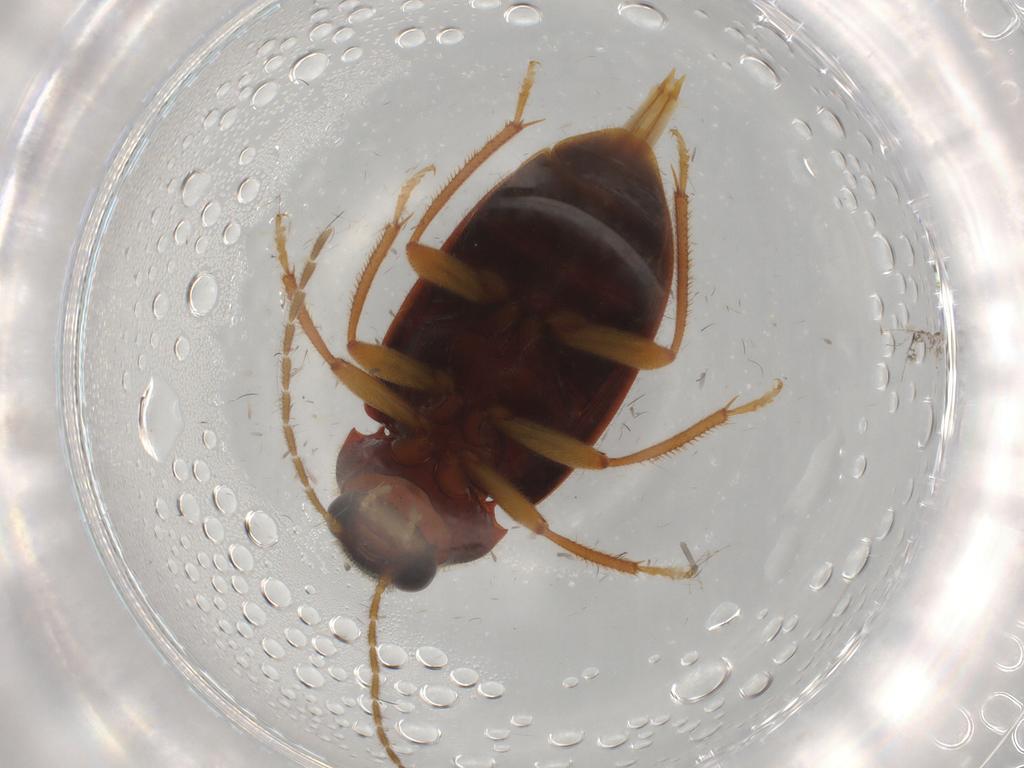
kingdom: Animalia
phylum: Arthropoda
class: Insecta
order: Coleoptera
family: Ptilodactylidae
